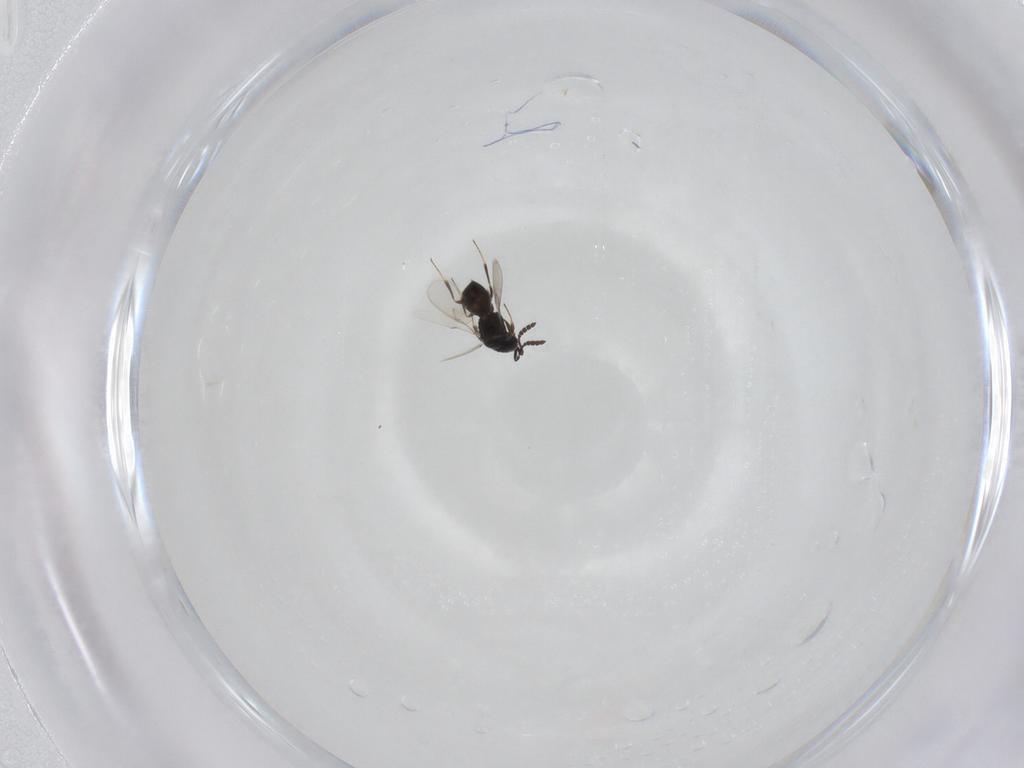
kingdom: Animalia
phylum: Arthropoda
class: Insecta
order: Hymenoptera
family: Scelionidae
